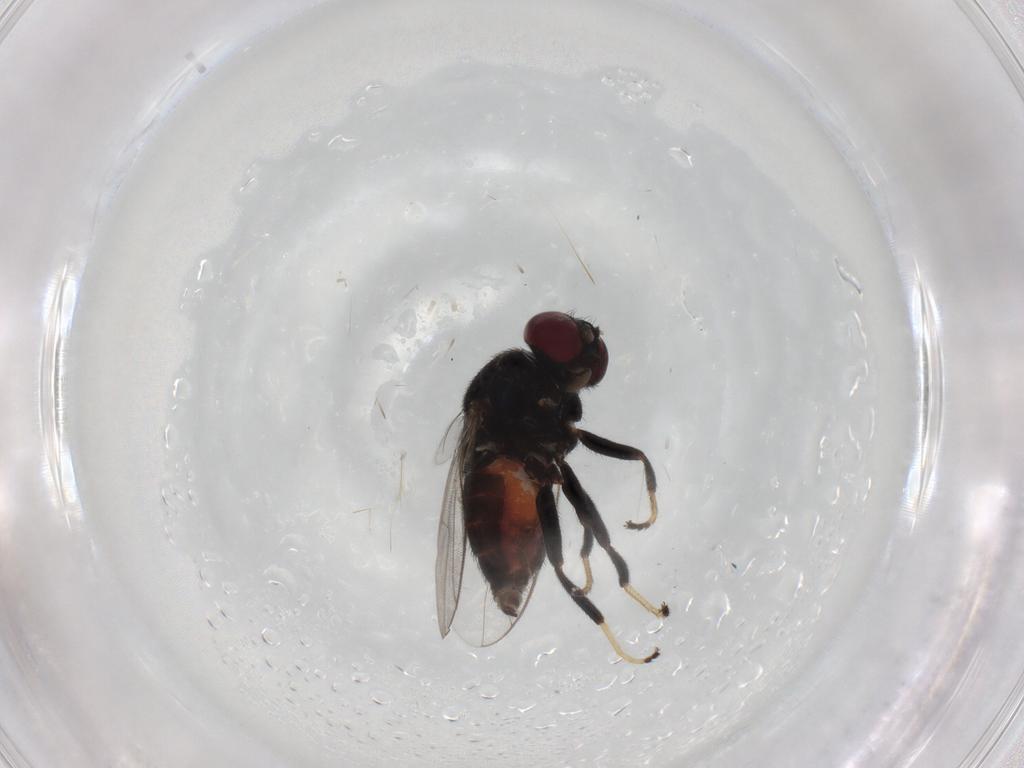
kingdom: Animalia
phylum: Arthropoda
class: Insecta
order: Diptera
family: Chloropidae
